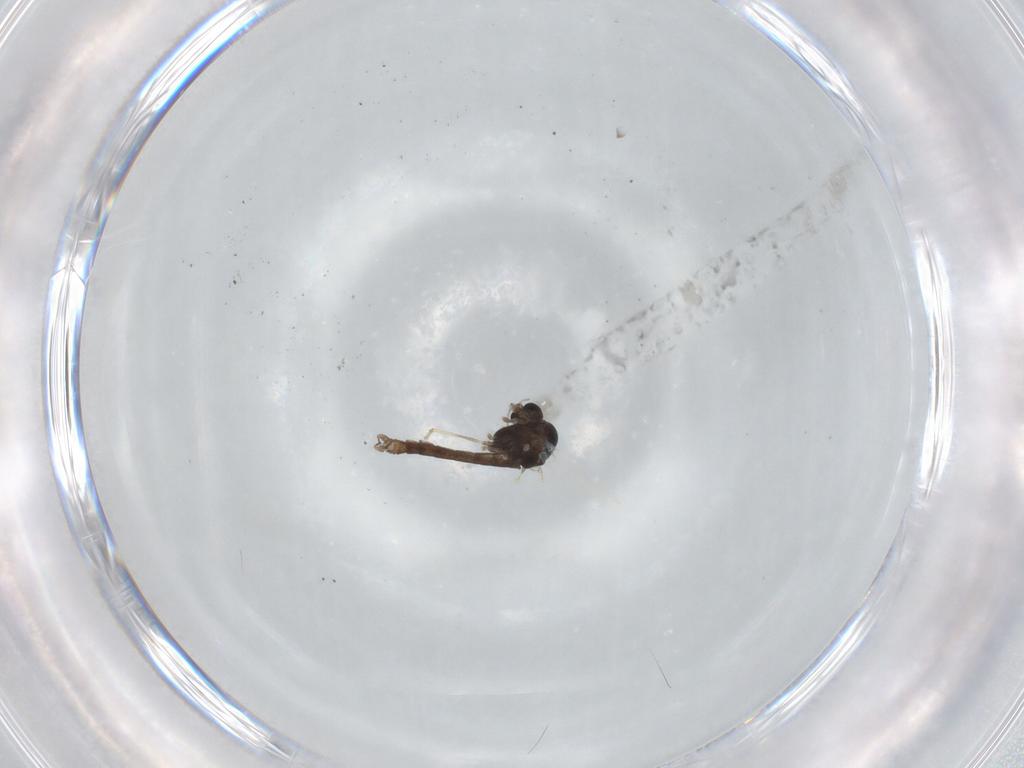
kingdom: Animalia
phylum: Arthropoda
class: Insecta
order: Diptera
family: Chironomidae
